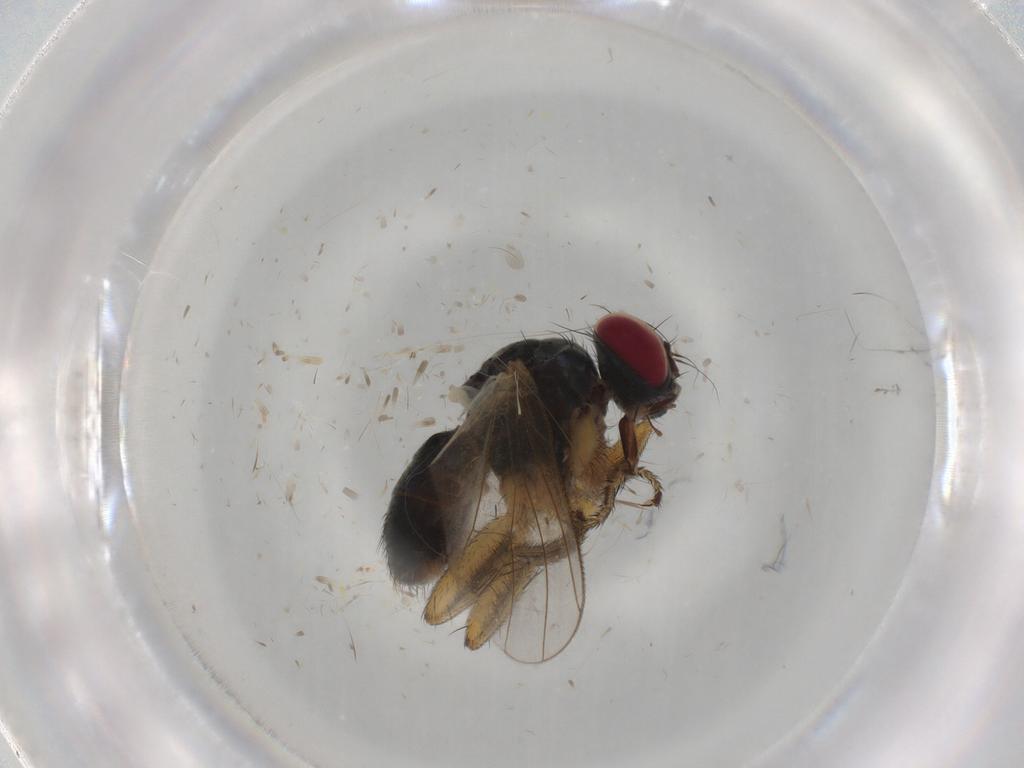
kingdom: Animalia
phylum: Arthropoda
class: Insecta
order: Diptera
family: Muscidae
